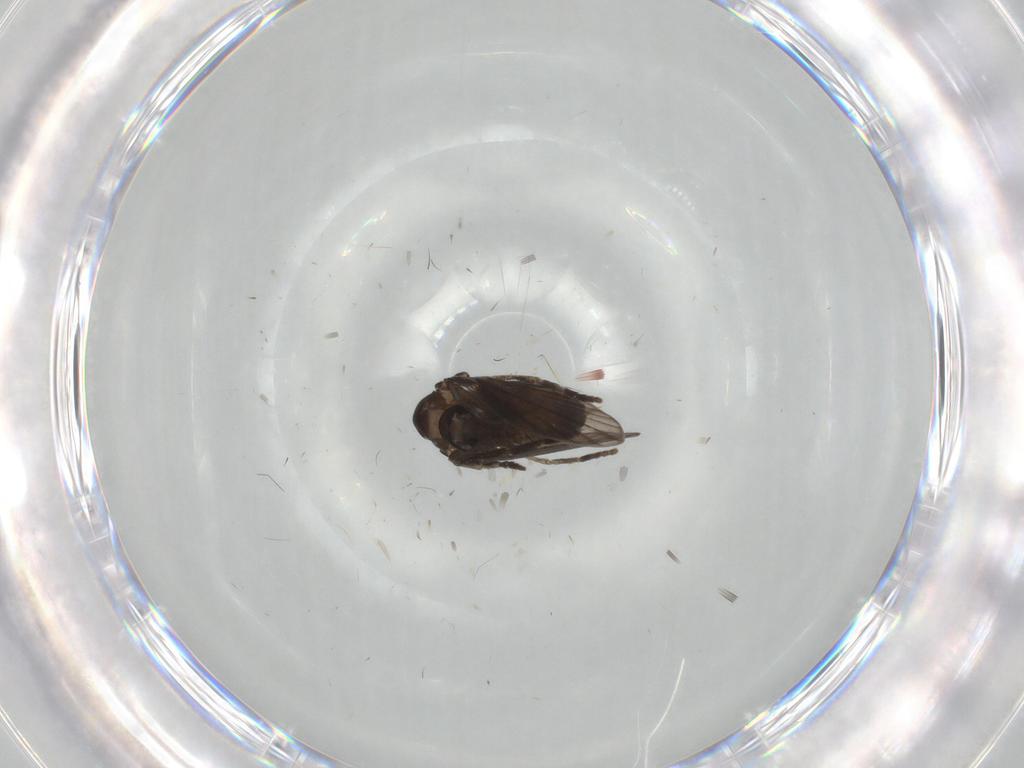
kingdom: Animalia
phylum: Arthropoda
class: Insecta
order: Diptera
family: Psychodidae
